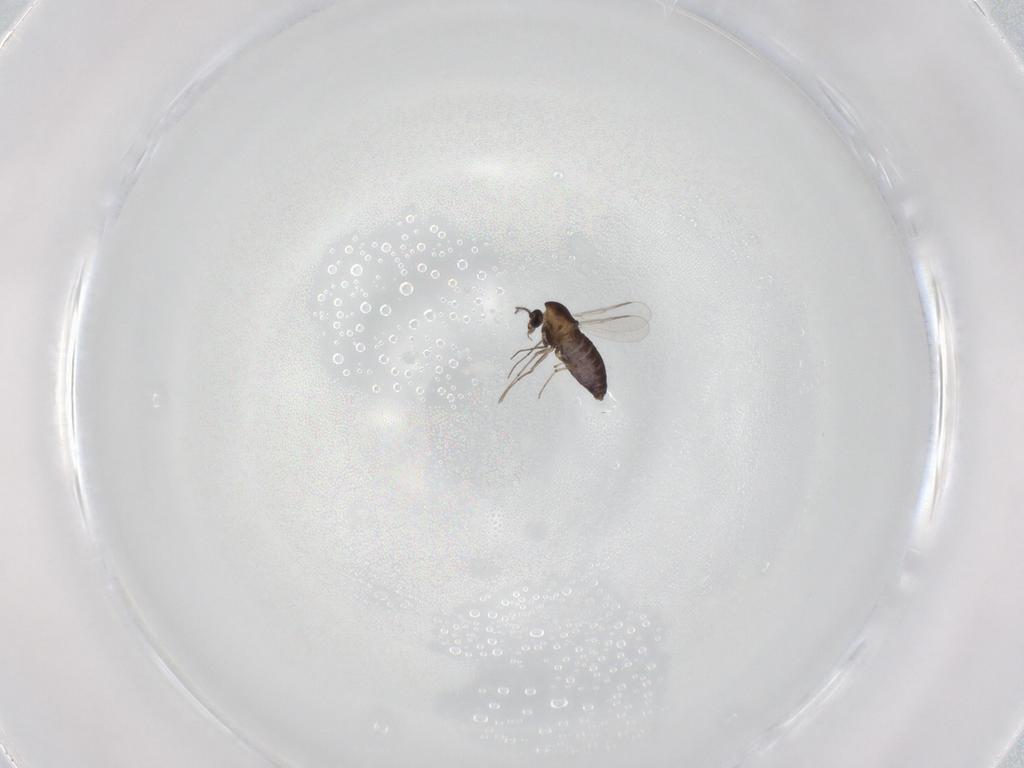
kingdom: Animalia
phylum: Arthropoda
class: Insecta
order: Diptera
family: Chironomidae
